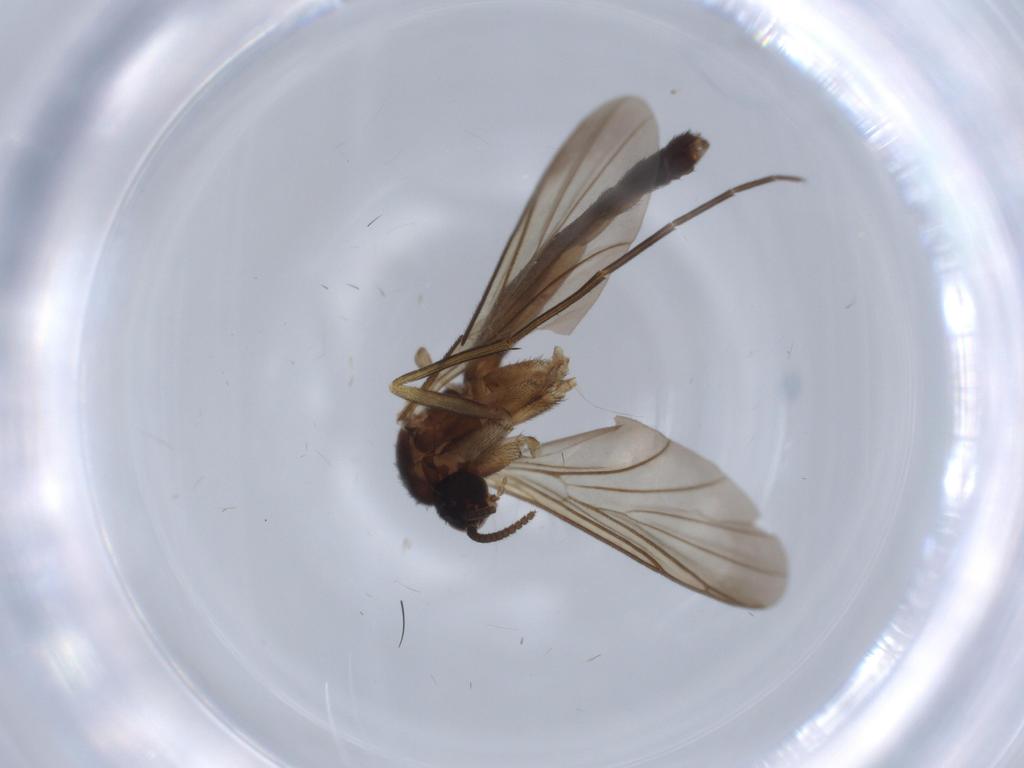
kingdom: Animalia
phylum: Arthropoda
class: Insecta
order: Diptera
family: Keroplatidae
